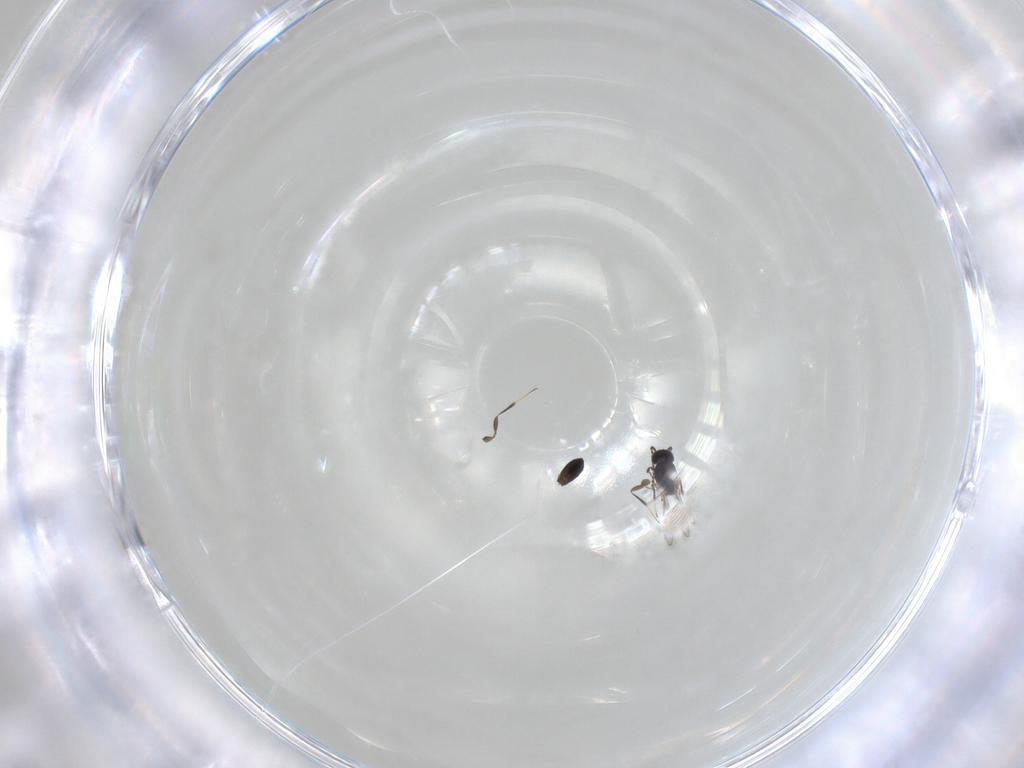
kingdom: Animalia
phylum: Arthropoda
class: Insecta
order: Hymenoptera
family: Scelionidae
